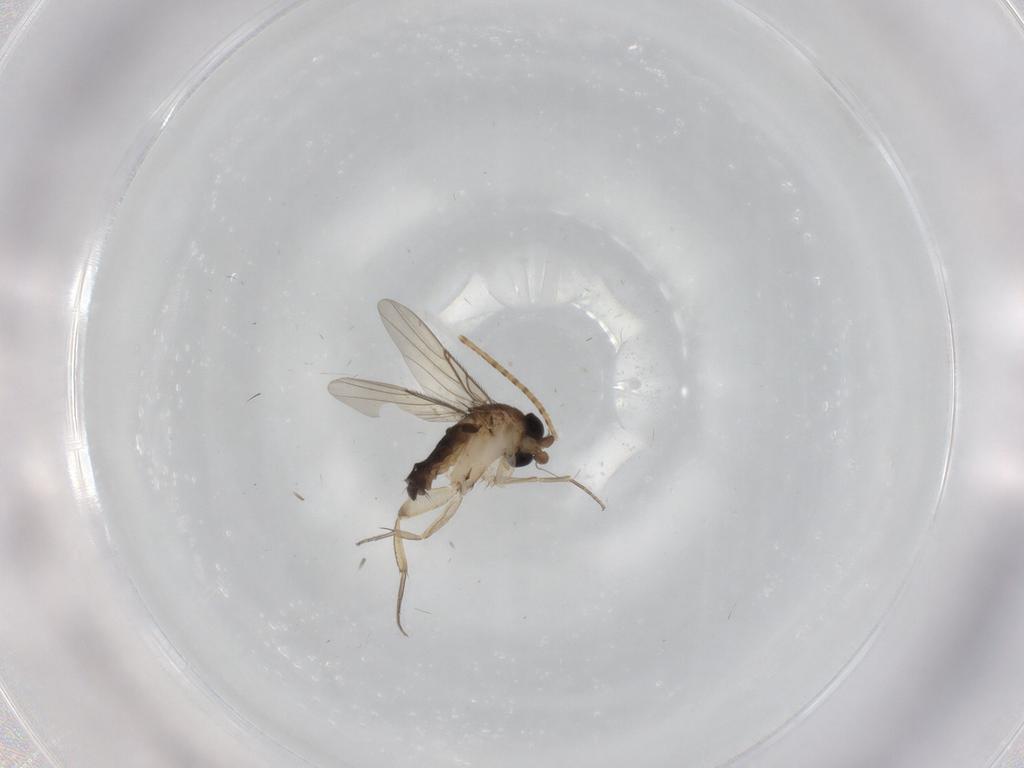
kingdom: Animalia
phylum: Arthropoda
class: Insecta
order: Diptera
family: Phoridae
